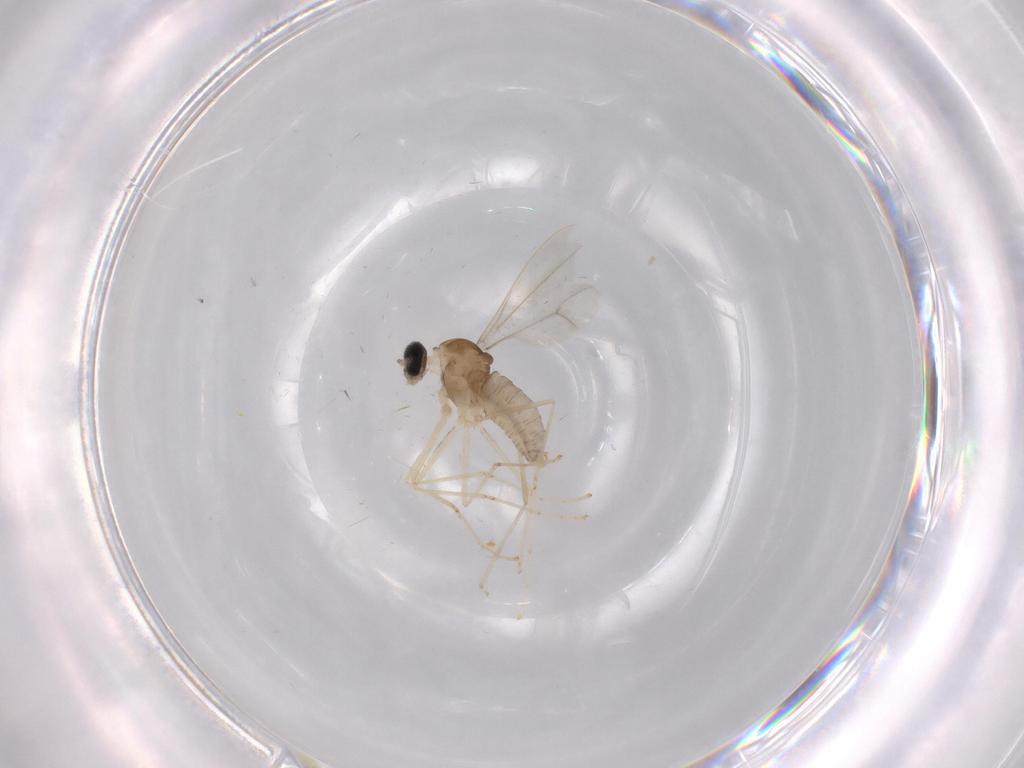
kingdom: Animalia
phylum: Arthropoda
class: Insecta
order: Diptera
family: Cecidomyiidae
